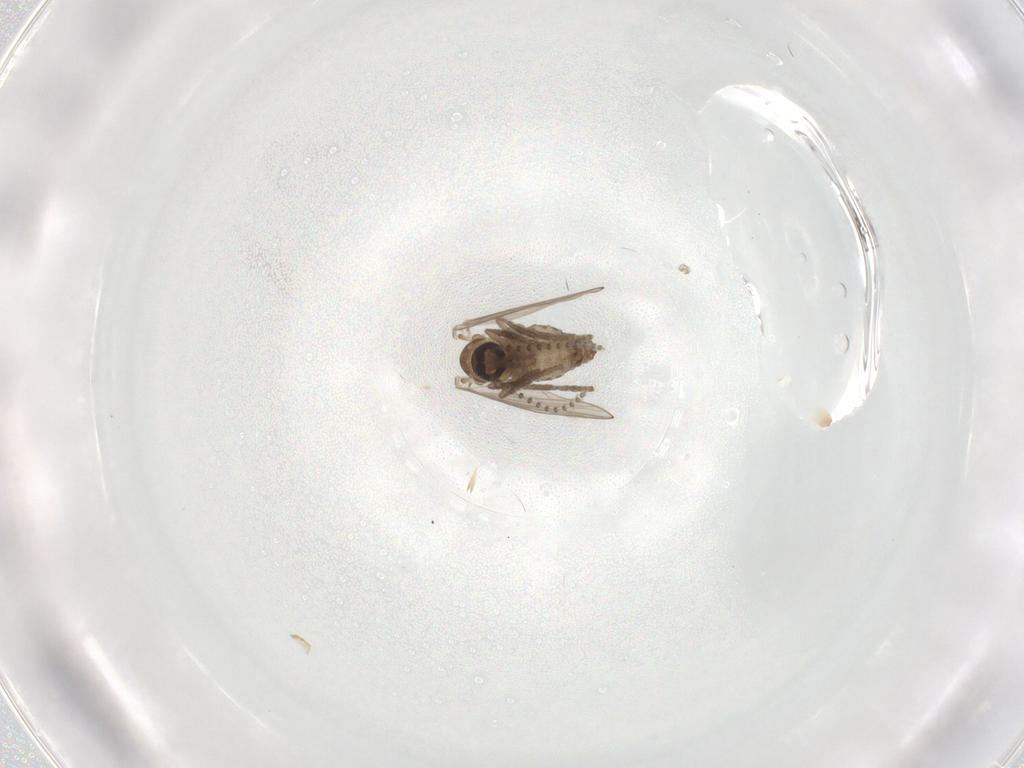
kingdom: Animalia
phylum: Arthropoda
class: Insecta
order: Diptera
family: Psychodidae
